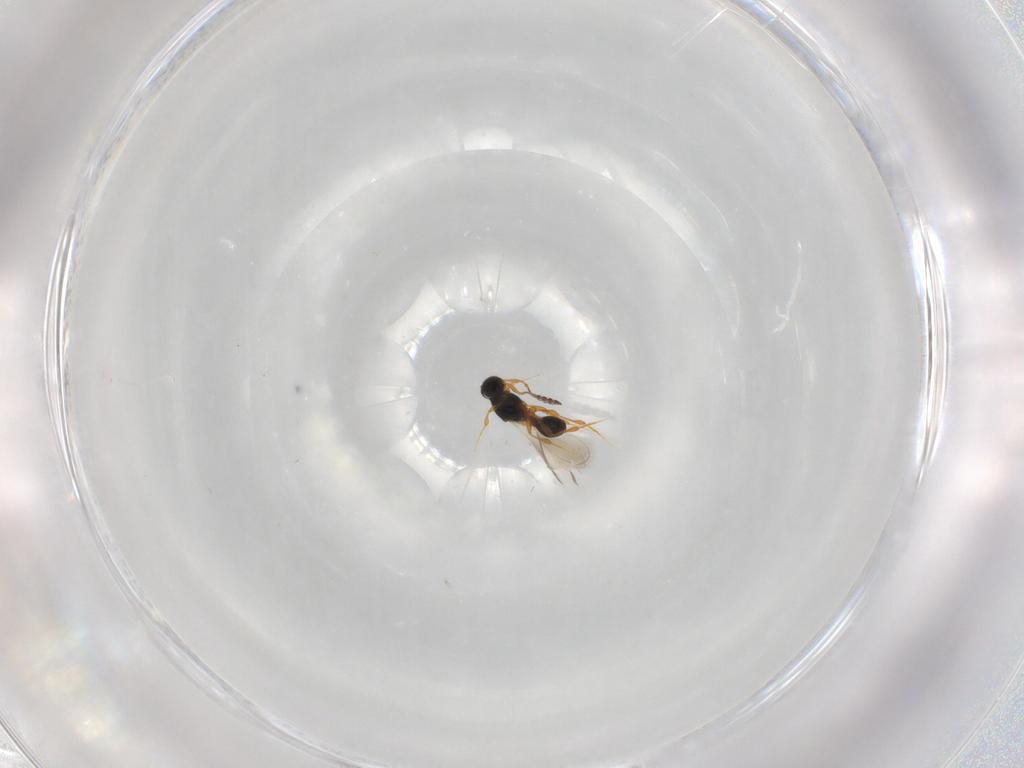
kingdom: Animalia
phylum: Arthropoda
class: Insecta
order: Hymenoptera
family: Platygastridae
